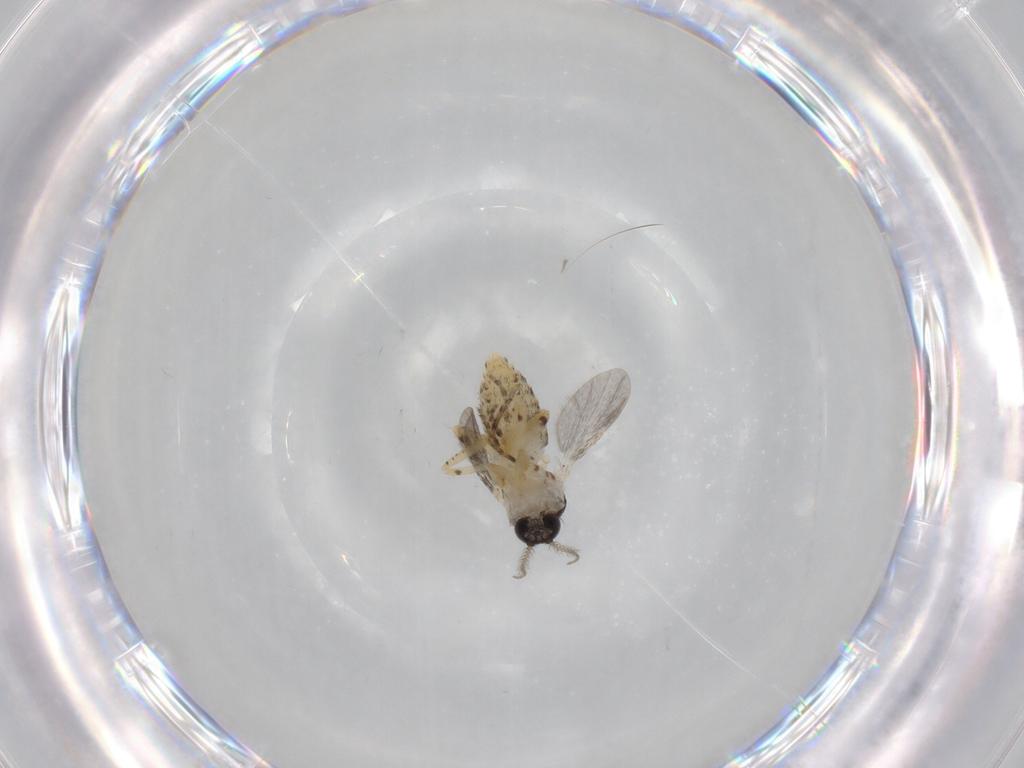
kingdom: Animalia
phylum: Arthropoda
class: Insecta
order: Diptera
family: Ceratopogonidae
